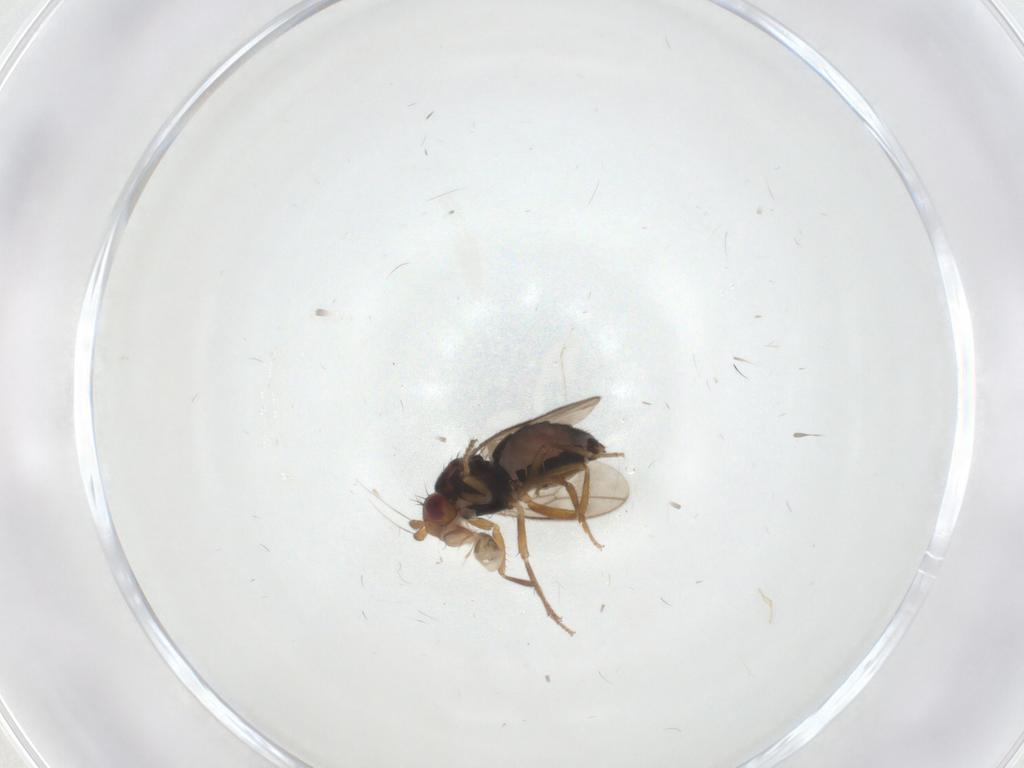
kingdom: Animalia
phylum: Arthropoda
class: Insecta
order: Diptera
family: Sphaeroceridae
